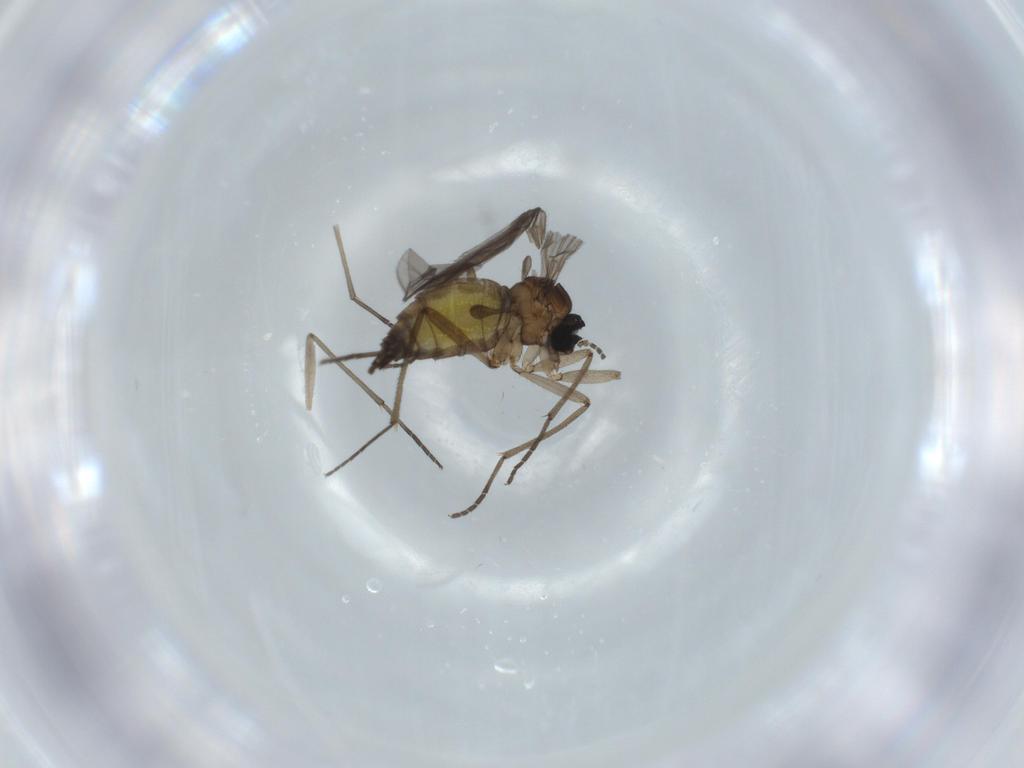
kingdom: Animalia
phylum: Arthropoda
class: Insecta
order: Diptera
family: Sciaridae
